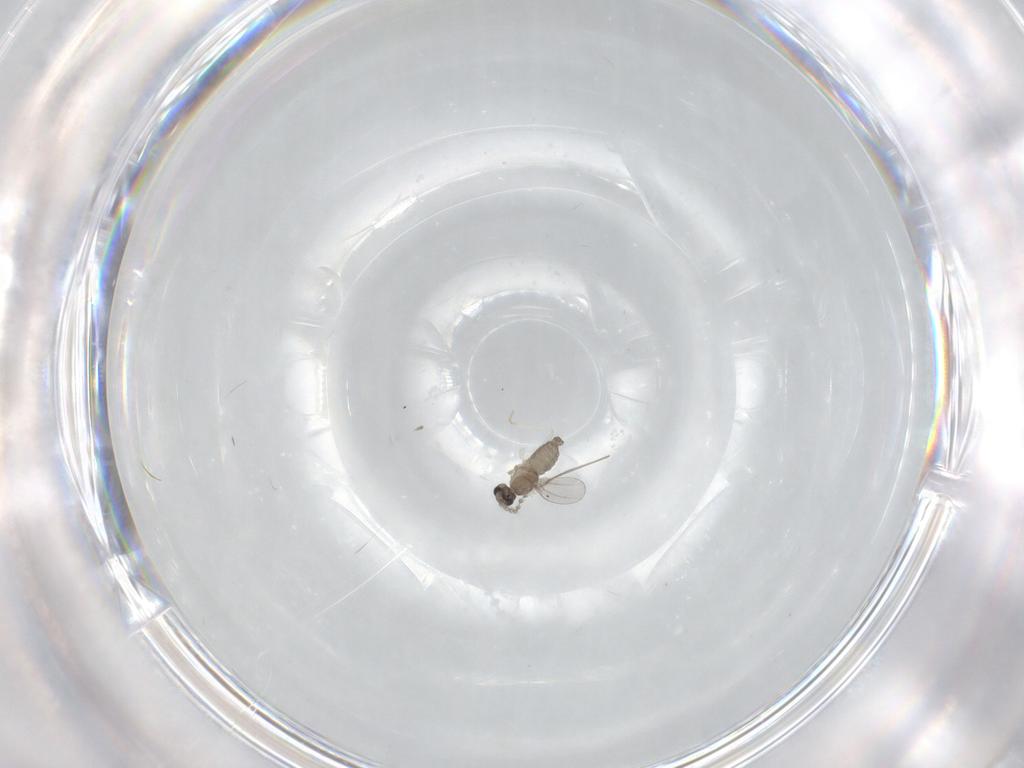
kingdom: Animalia
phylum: Arthropoda
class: Insecta
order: Diptera
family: Cecidomyiidae
